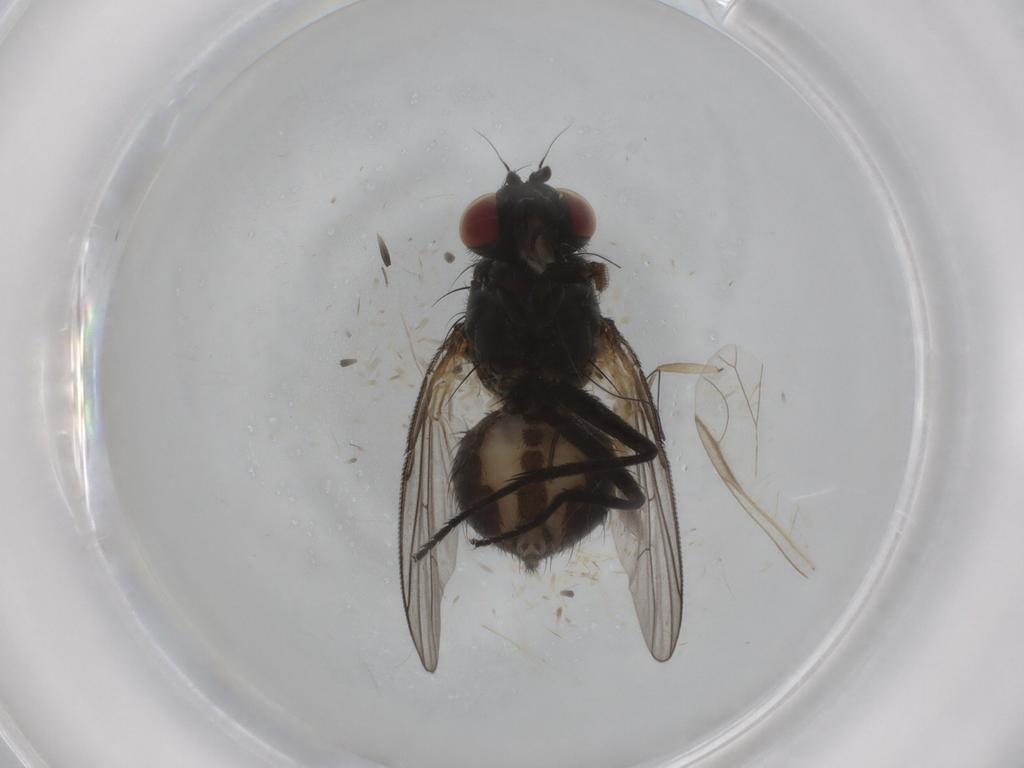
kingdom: Animalia
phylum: Arthropoda
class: Insecta
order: Diptera
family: Muscidae
